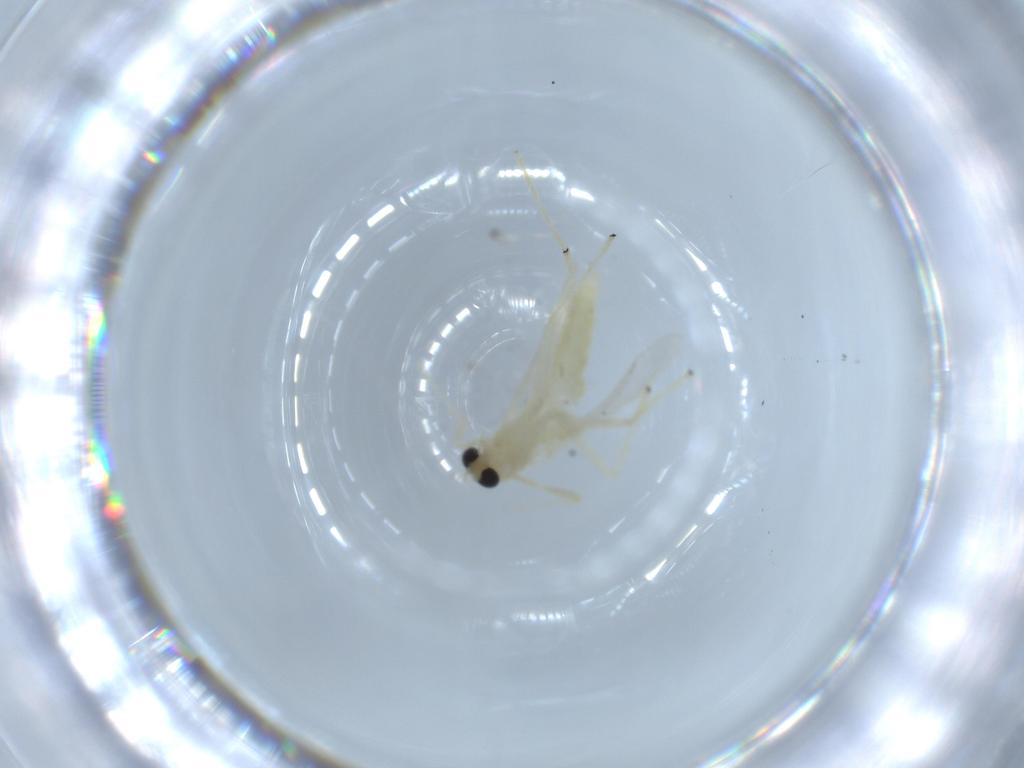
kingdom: Animalia
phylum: Arthropoda
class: Insecta
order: Diptera
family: Chironomidae
